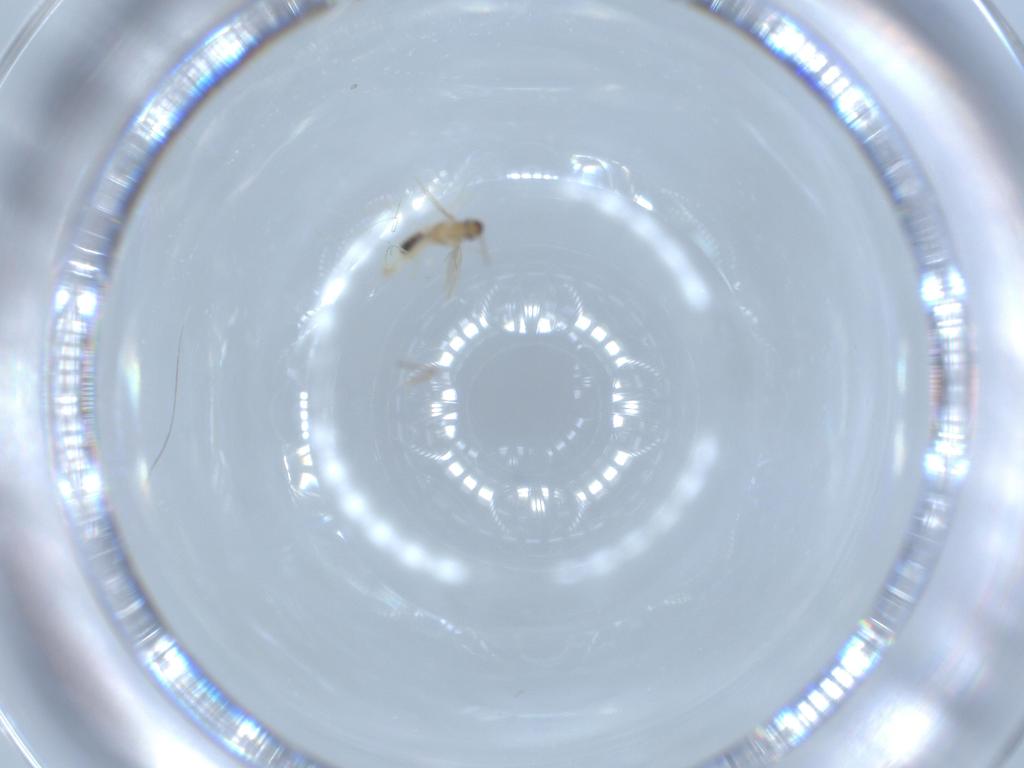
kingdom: Animalia
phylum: Arthropoda
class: Insecta
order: Diptera
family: Cecidomyiidae
